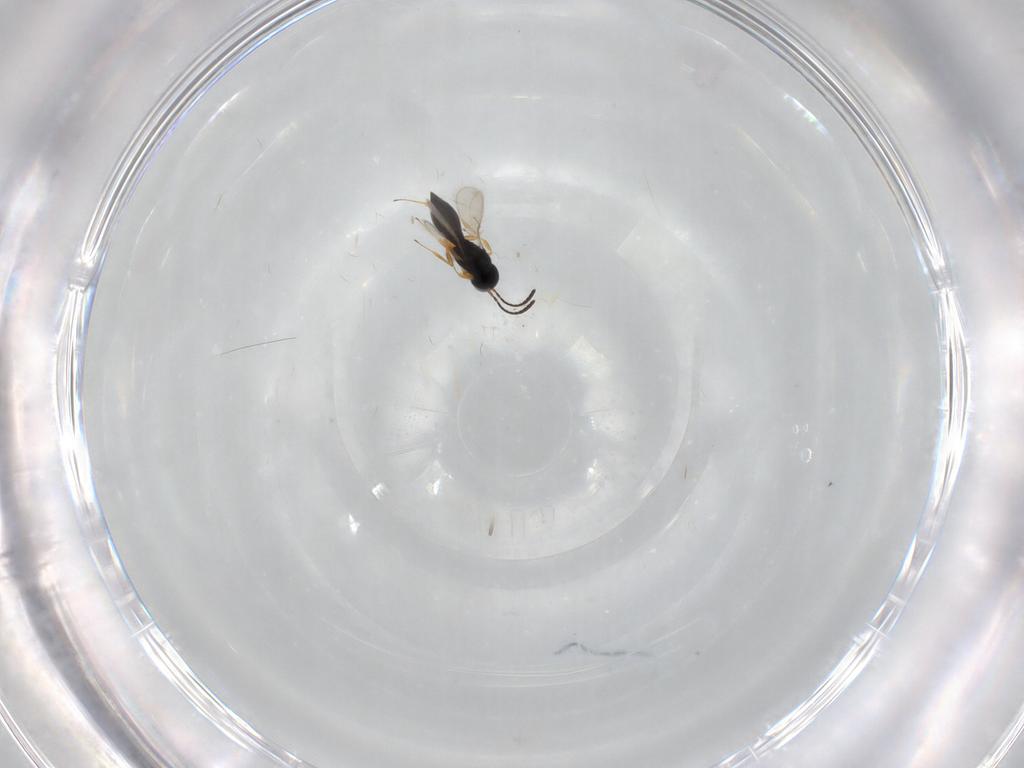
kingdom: Animalia
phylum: Arthropoda
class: Insecta
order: Hymenoptera
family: Scelionidae
